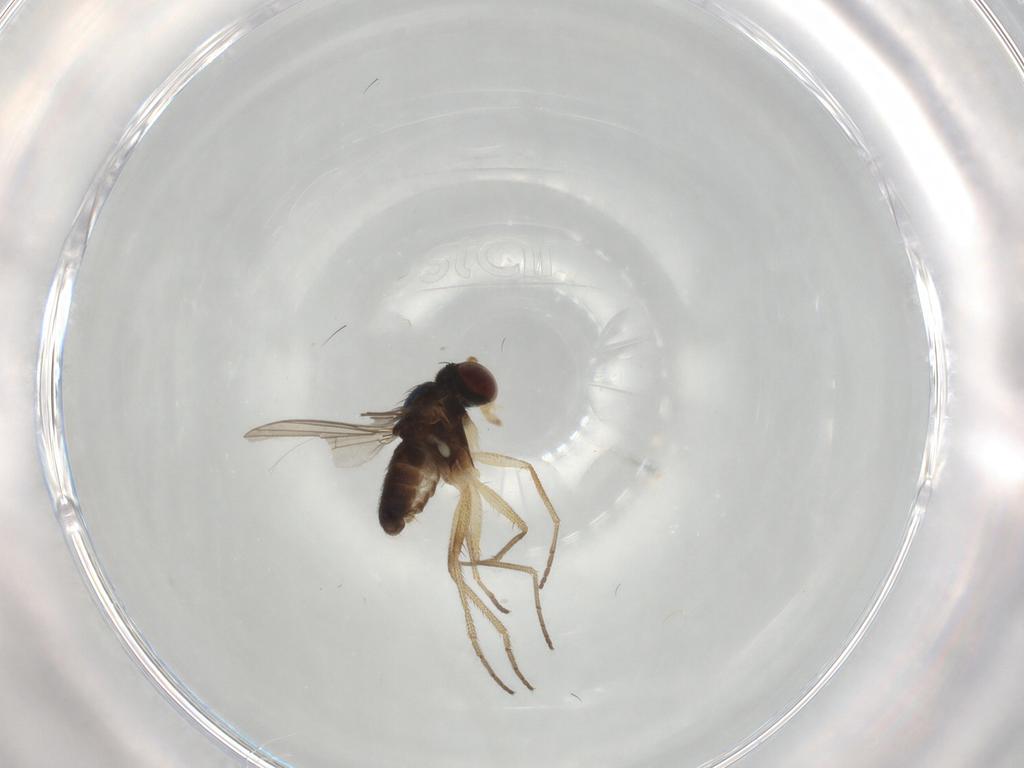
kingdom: Animalia
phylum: Arthropoda
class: Insecta
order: Diptera
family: Dolichopodidae
